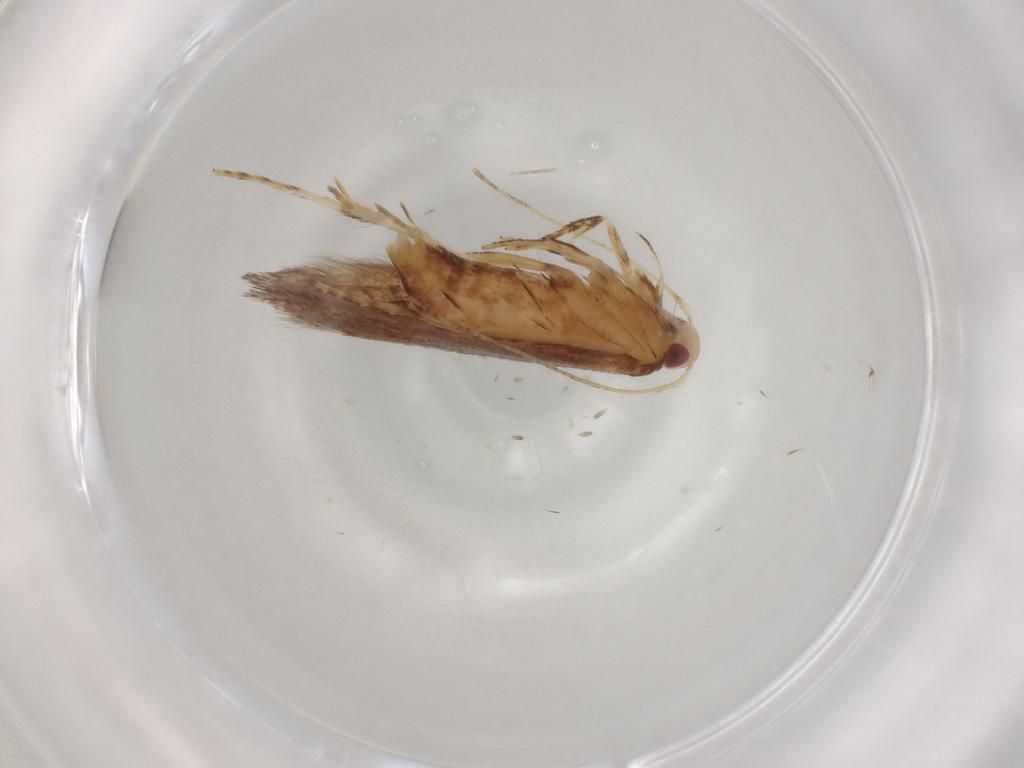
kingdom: Animalia
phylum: Arthropoda
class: Insecta
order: Lepidoptera
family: Cosmopterigidae
